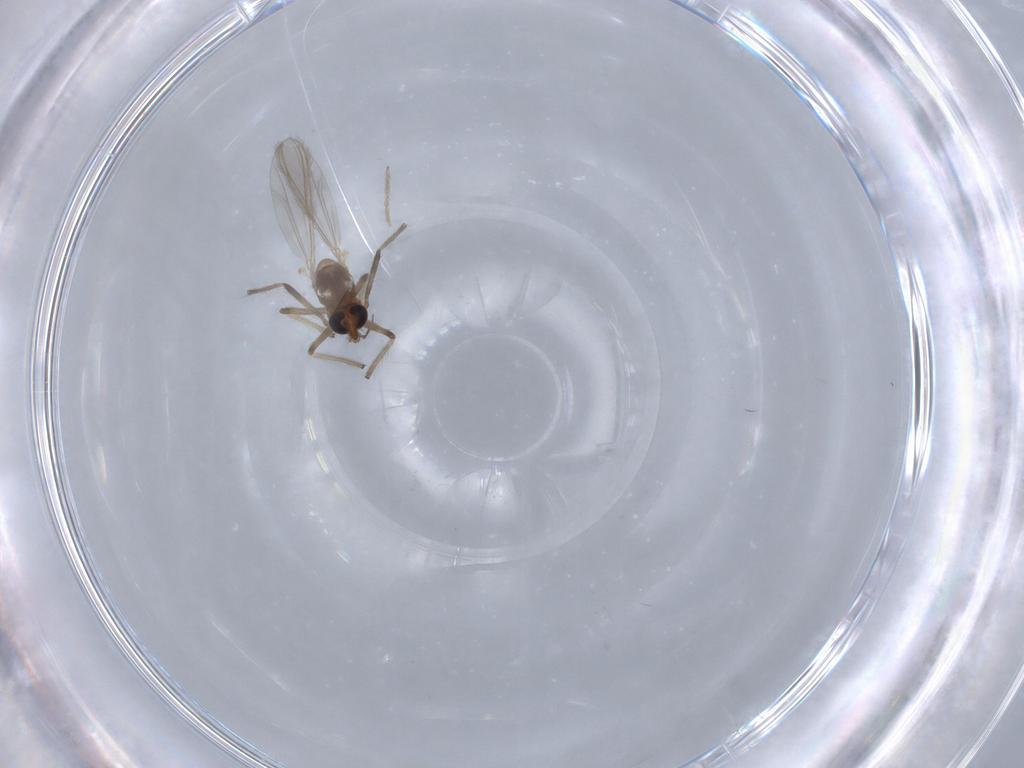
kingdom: Animalia
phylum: Arthropoda
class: Insecta
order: Diptera
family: Chironomidae
